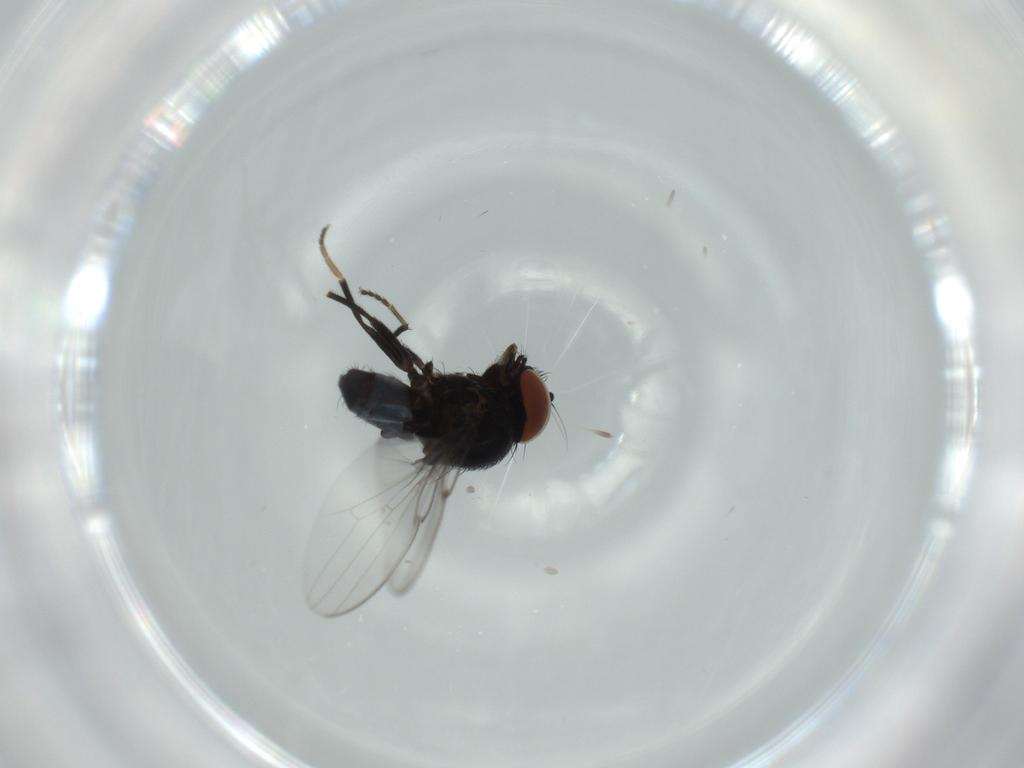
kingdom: Animalia
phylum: Arthropoda
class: Insecta
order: Diptera
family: Milichiidae
